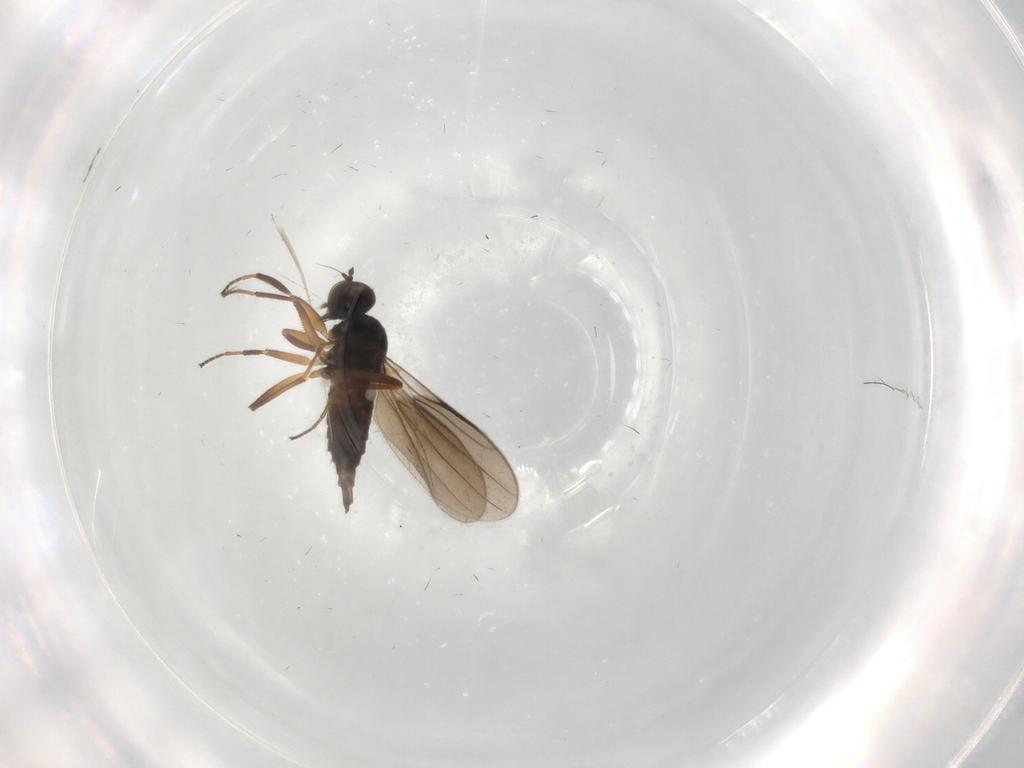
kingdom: Animalia
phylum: Arthropoda
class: Insecta
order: Diptera
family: Hybotidae
